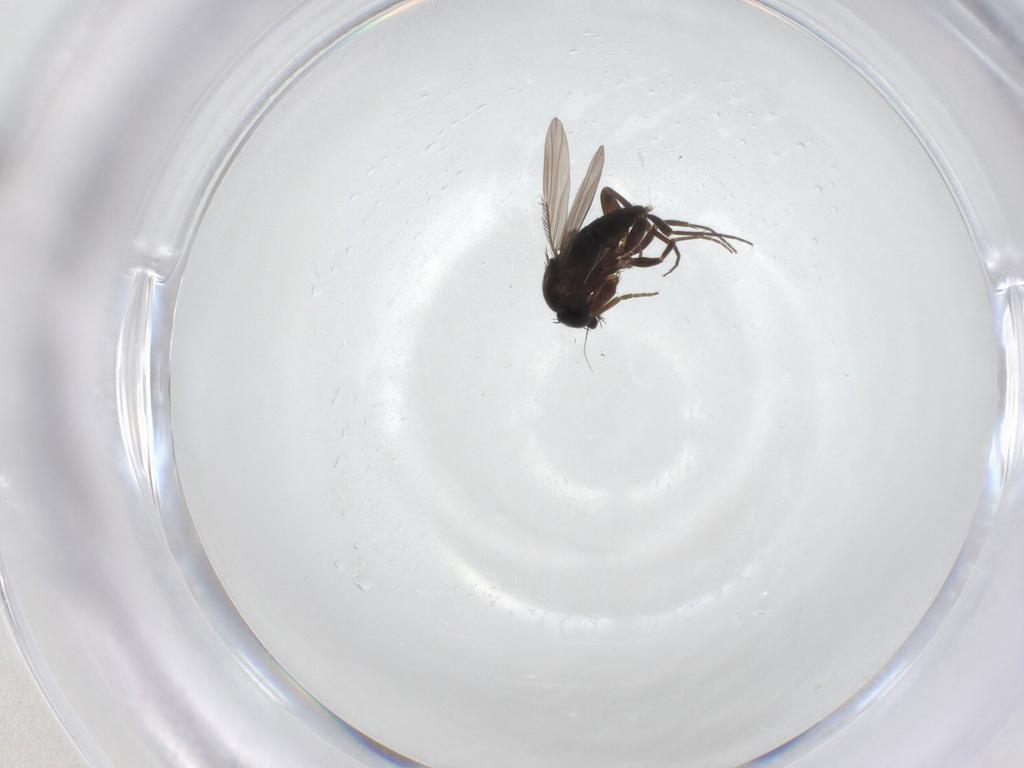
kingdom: Animalia
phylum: Arthropoda
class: Insecta
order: Diptera
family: Phoridae
